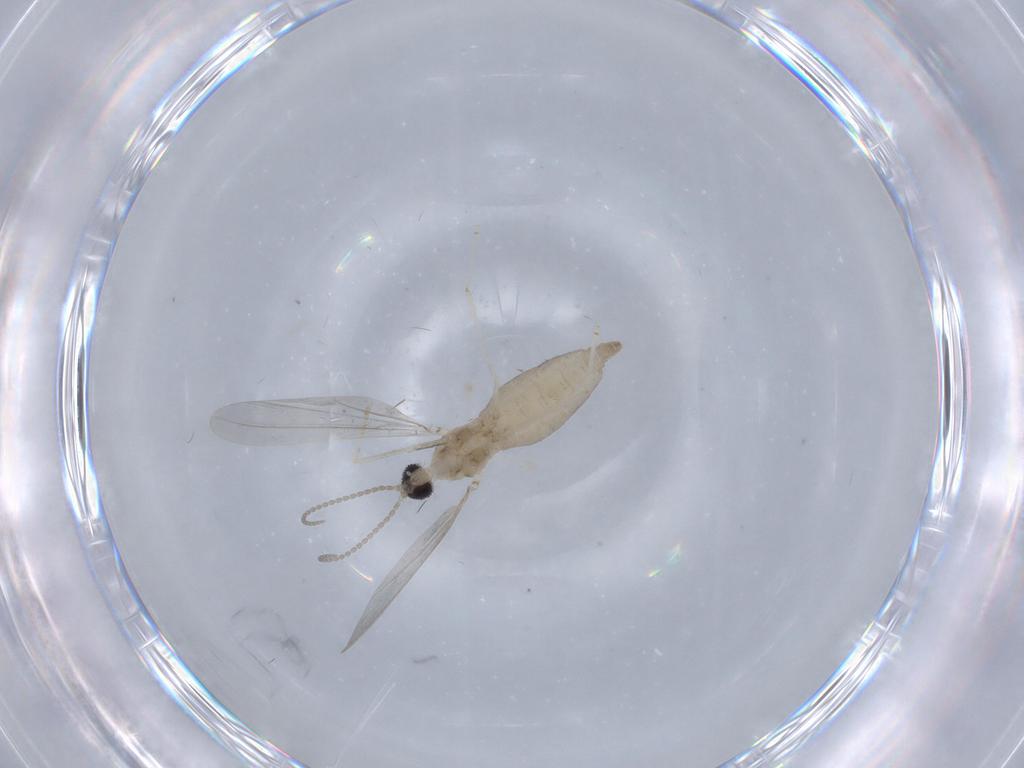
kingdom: Animalia
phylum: Arthropoda
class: Insecta
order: Diptera
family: Cecidomyiidae
